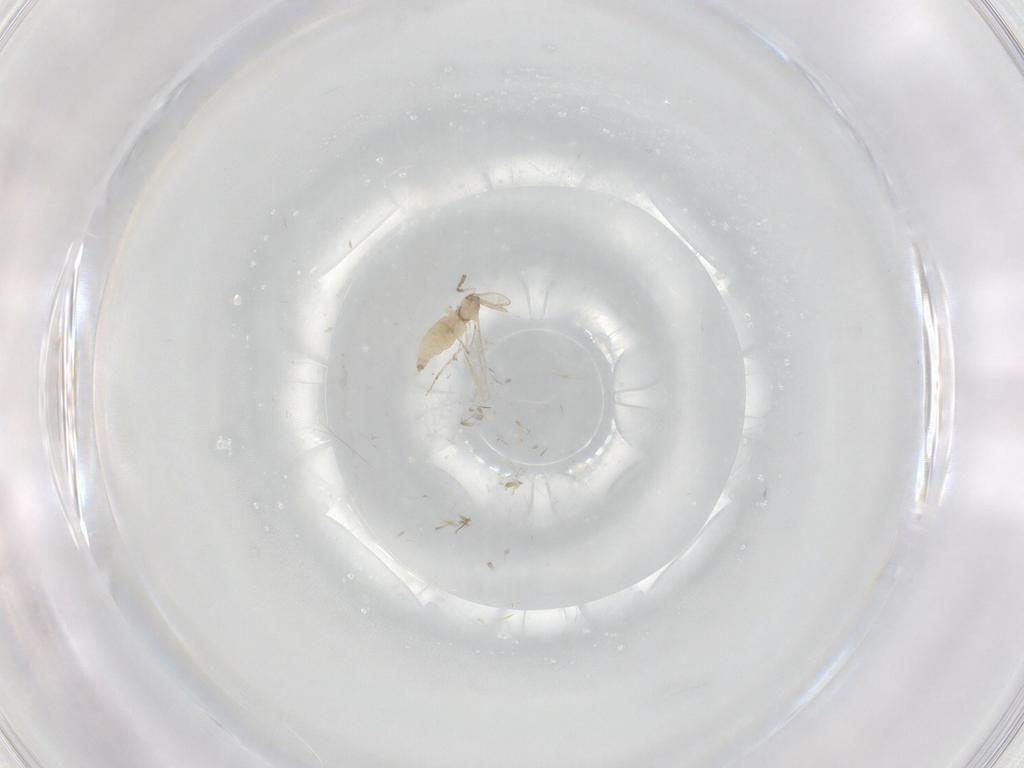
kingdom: Animalia
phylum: Arthropoda
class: Insecta
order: Diptera
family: Cecidomyiidae
